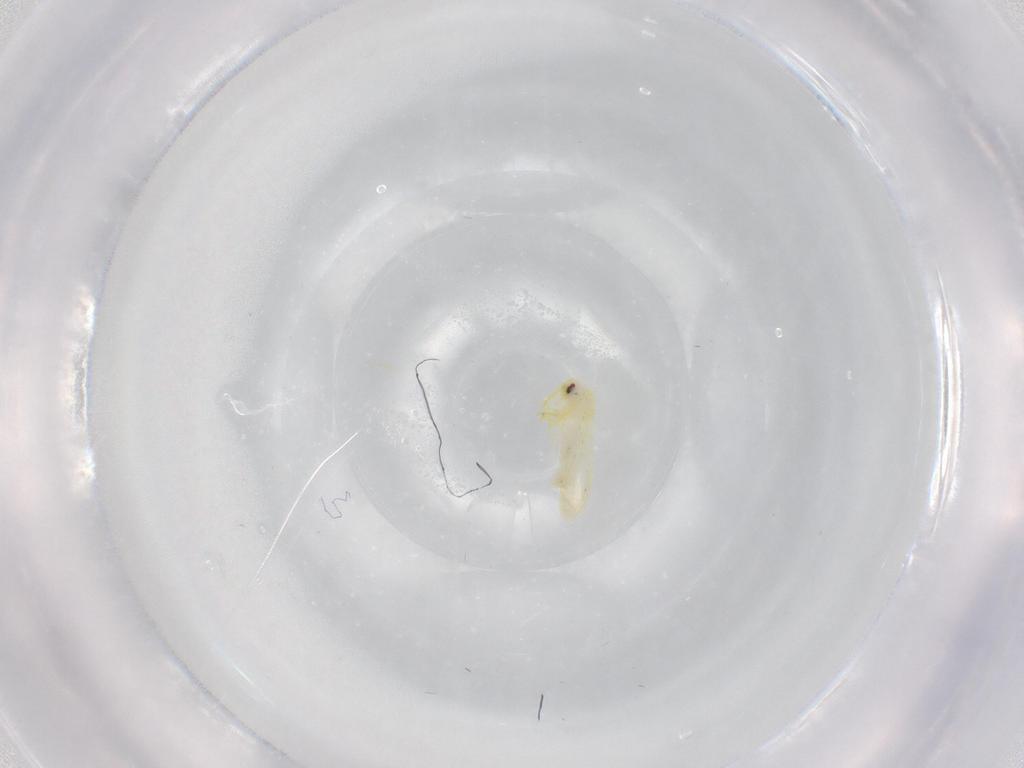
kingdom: Animalia
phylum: Arthropoda
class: Insecta
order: Hemiptera
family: Aleyrodidae
